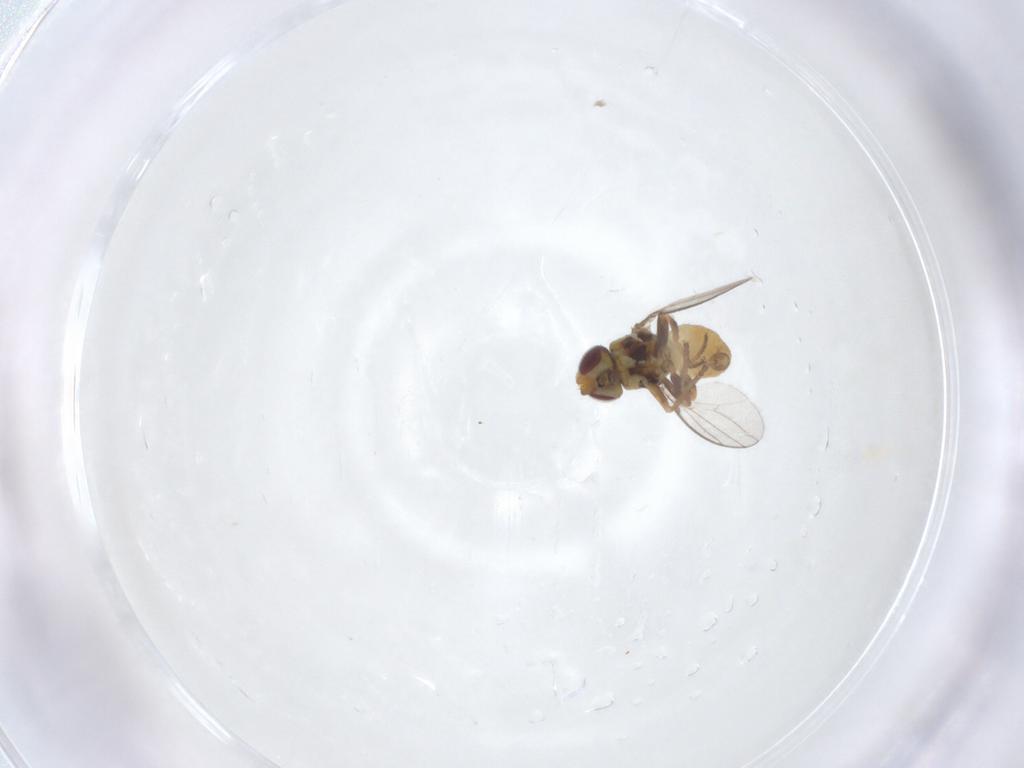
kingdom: Animalia
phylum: Arthropoda
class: Insecta
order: Diptera
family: Chloropidae
